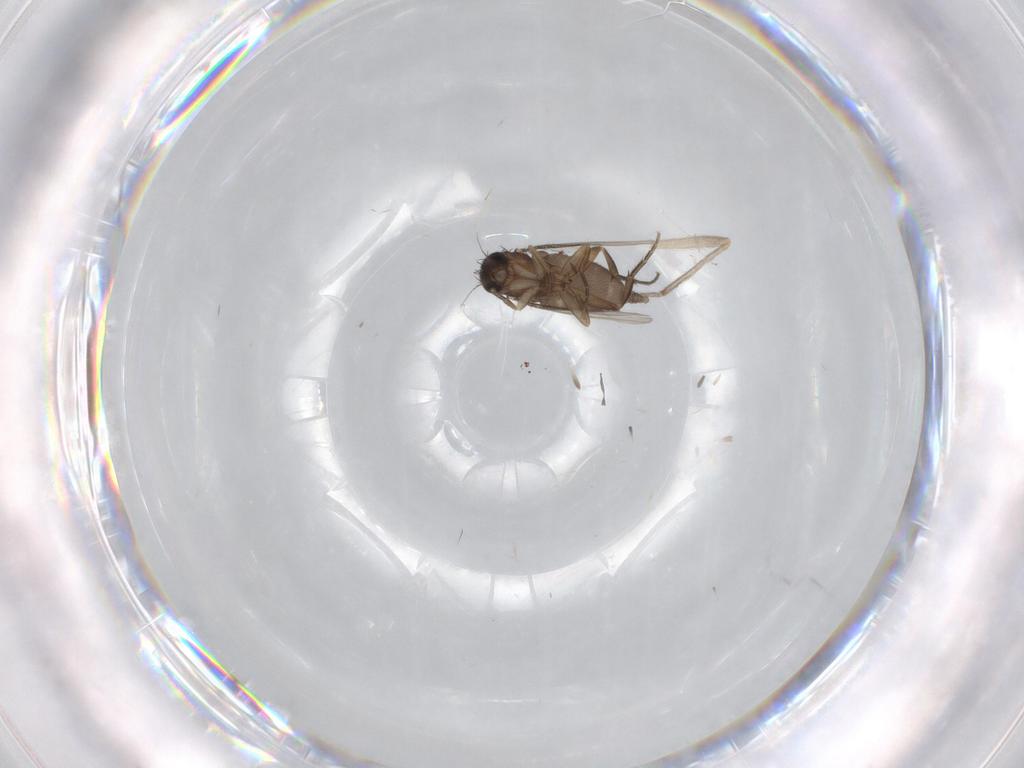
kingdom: Animalia
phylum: Arthropoda
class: Insecta
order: Diptera
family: Phoridae
